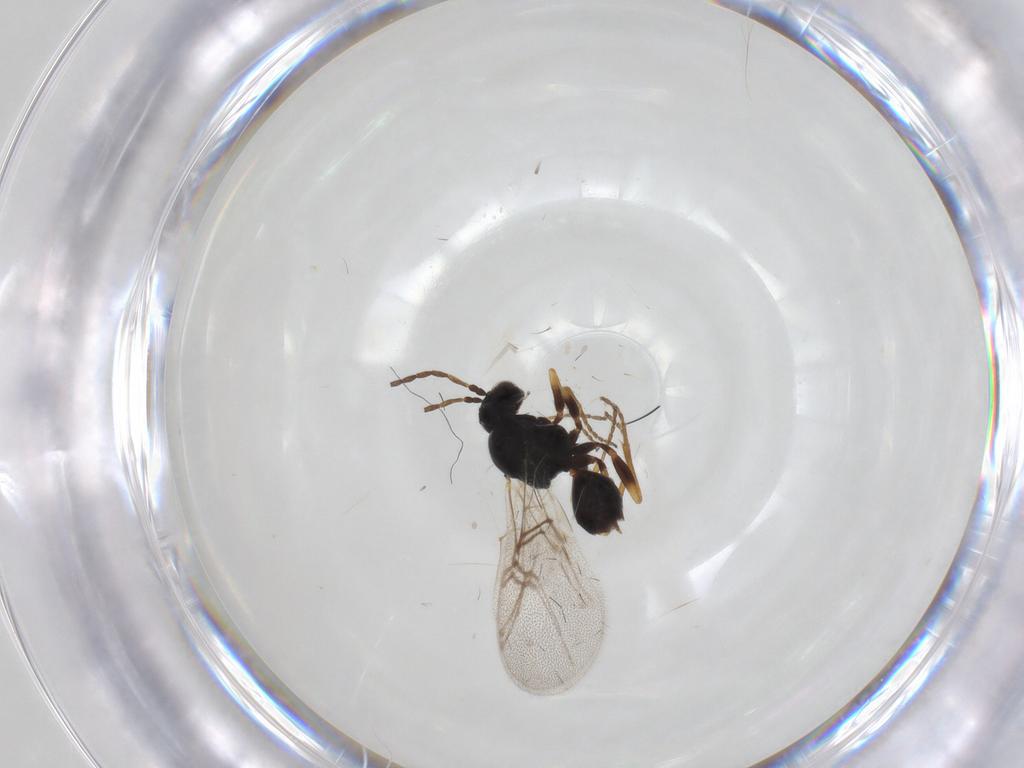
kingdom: Animalia
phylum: Arthropoda
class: Insecta
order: Hymenoptera
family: Cynipidae
